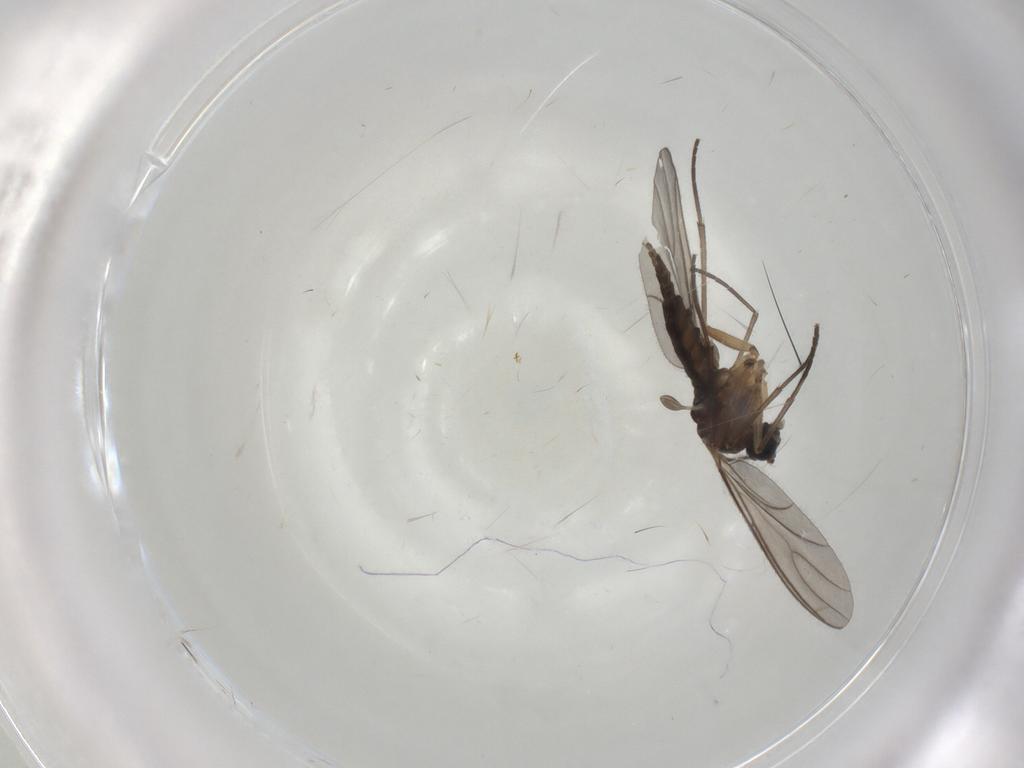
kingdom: Animalia
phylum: Arthropoda
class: Insecta
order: Diptera
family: Sciaridae
